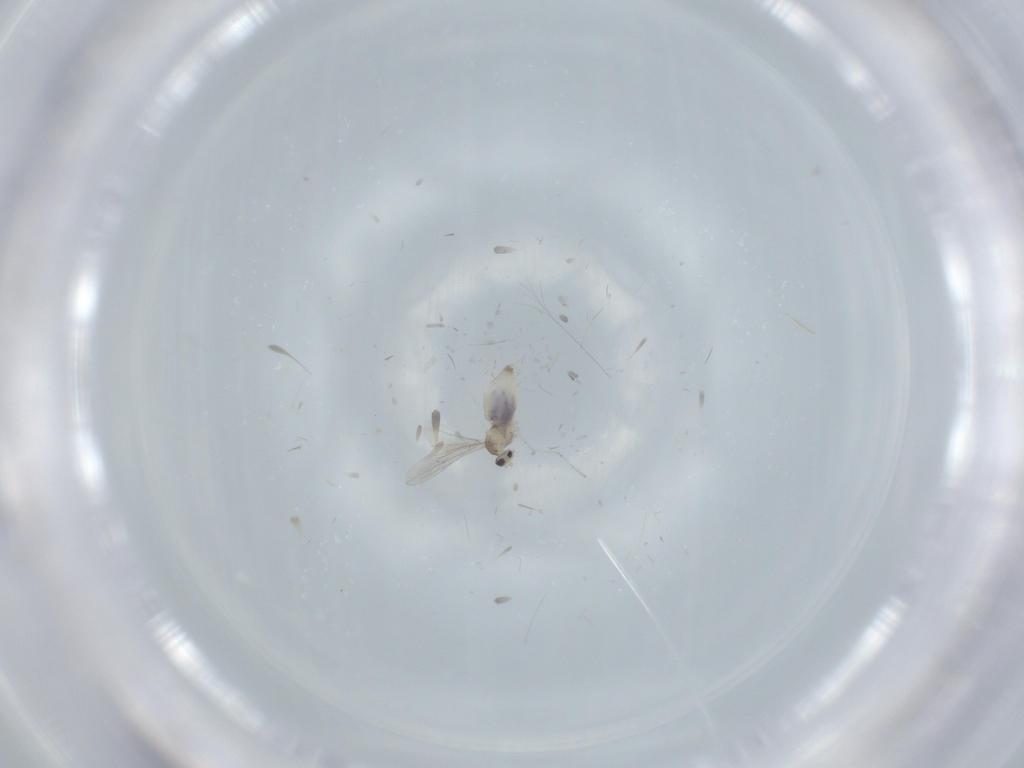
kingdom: Animalia
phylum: Arthropoda
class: Insecta
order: Diptera
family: Cecidomyiidae
